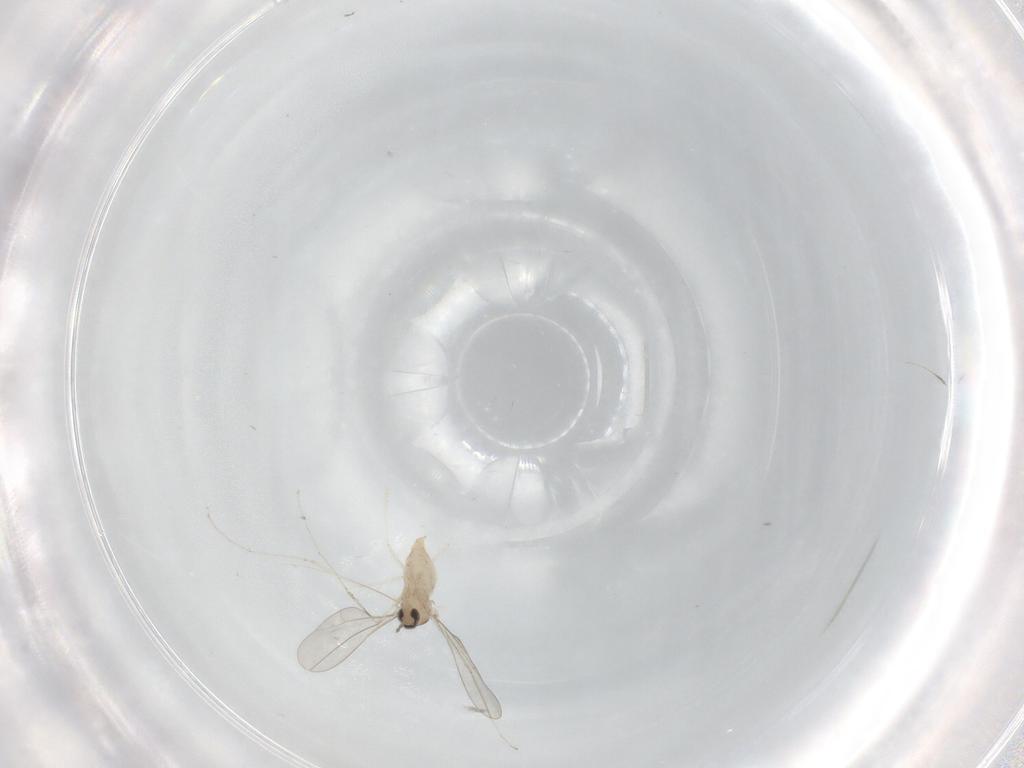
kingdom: Animalia
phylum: Arthropoda
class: Insecta
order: Diptera
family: Cecidomyiidae
